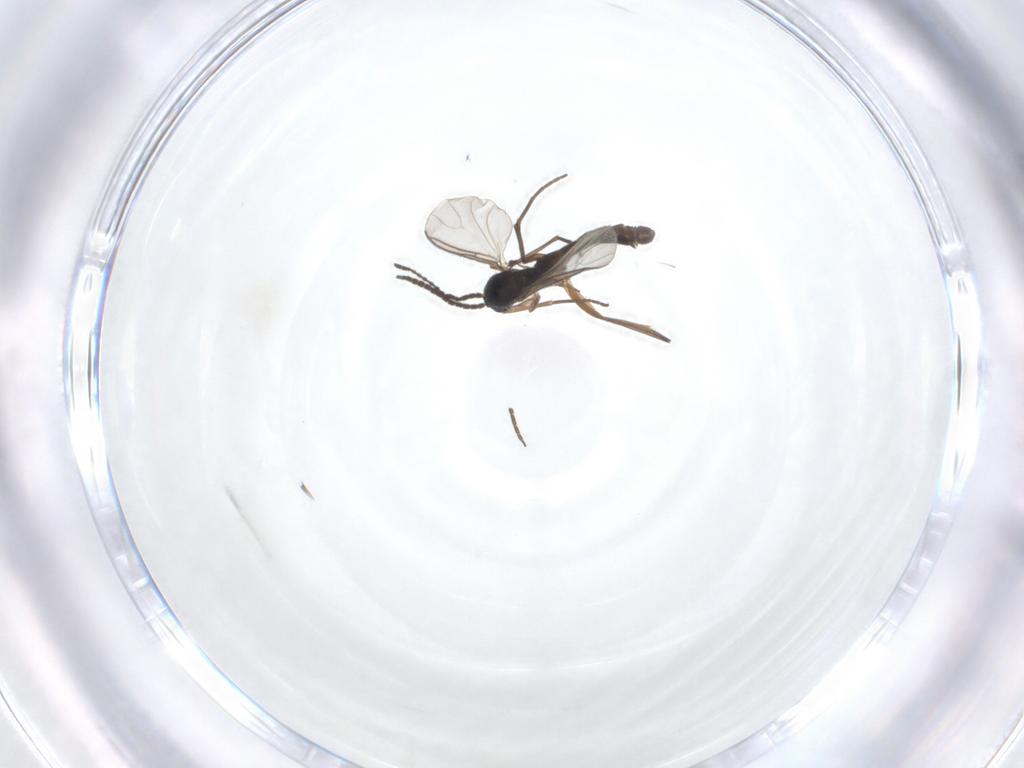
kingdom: Animalia
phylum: Arthropoda
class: Insecta
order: Diptera
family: Sciaridae
